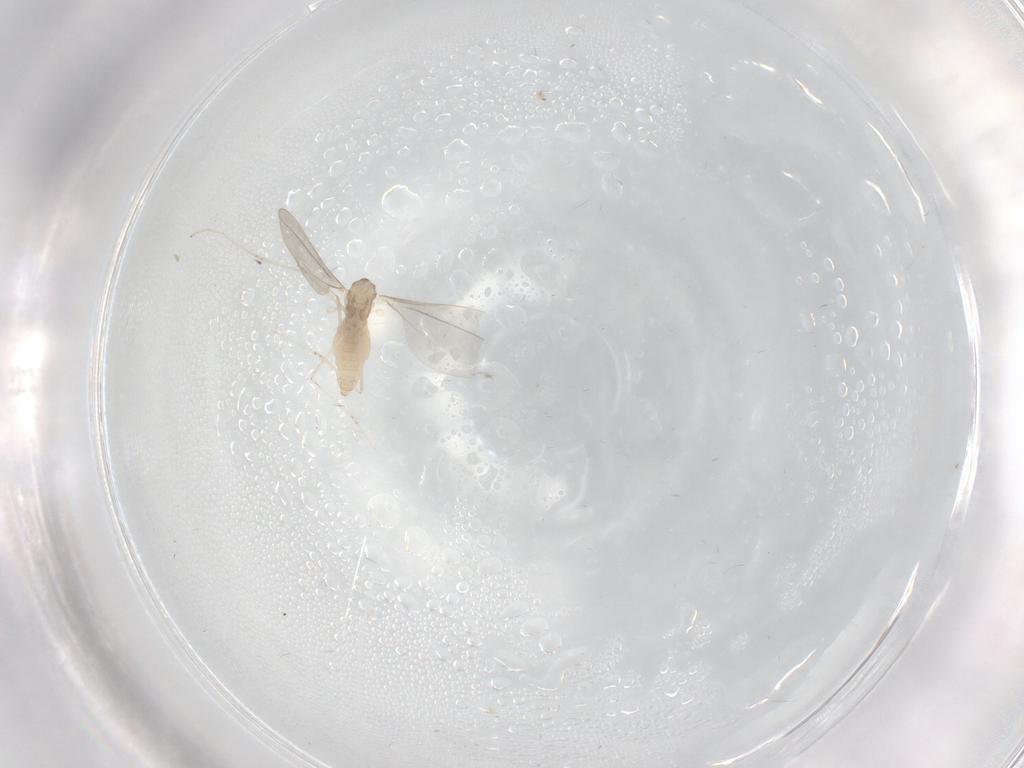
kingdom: Animalia
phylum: Arthropoda
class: Insecta
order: Diptera
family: Cecidomyiidae
